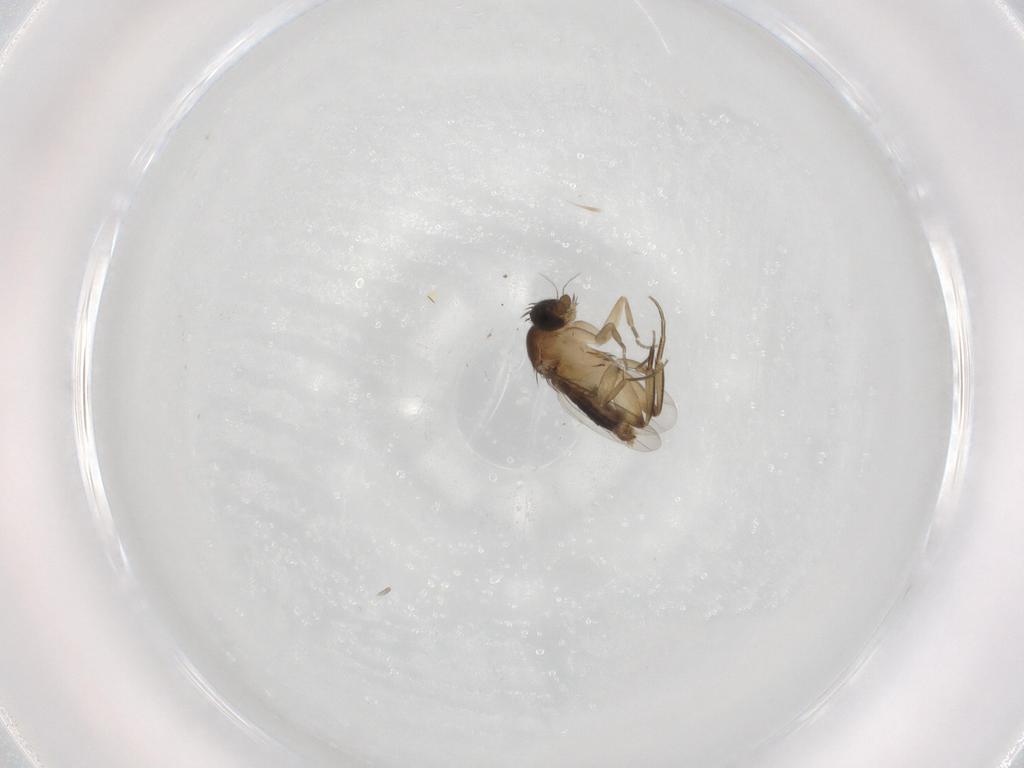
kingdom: Animalia
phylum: Arthropoda
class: Insecta
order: Diptera
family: Phoridae
